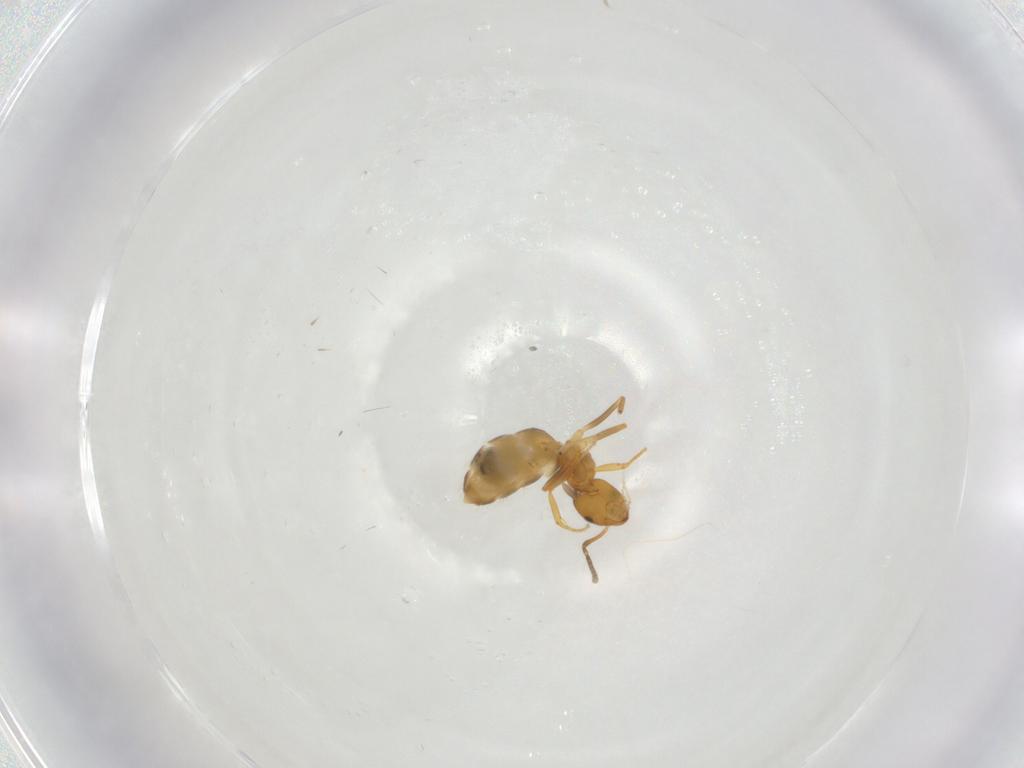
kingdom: Animalia
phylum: Arthropoda
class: Insecta
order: Hymenoptera
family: Formicidae
